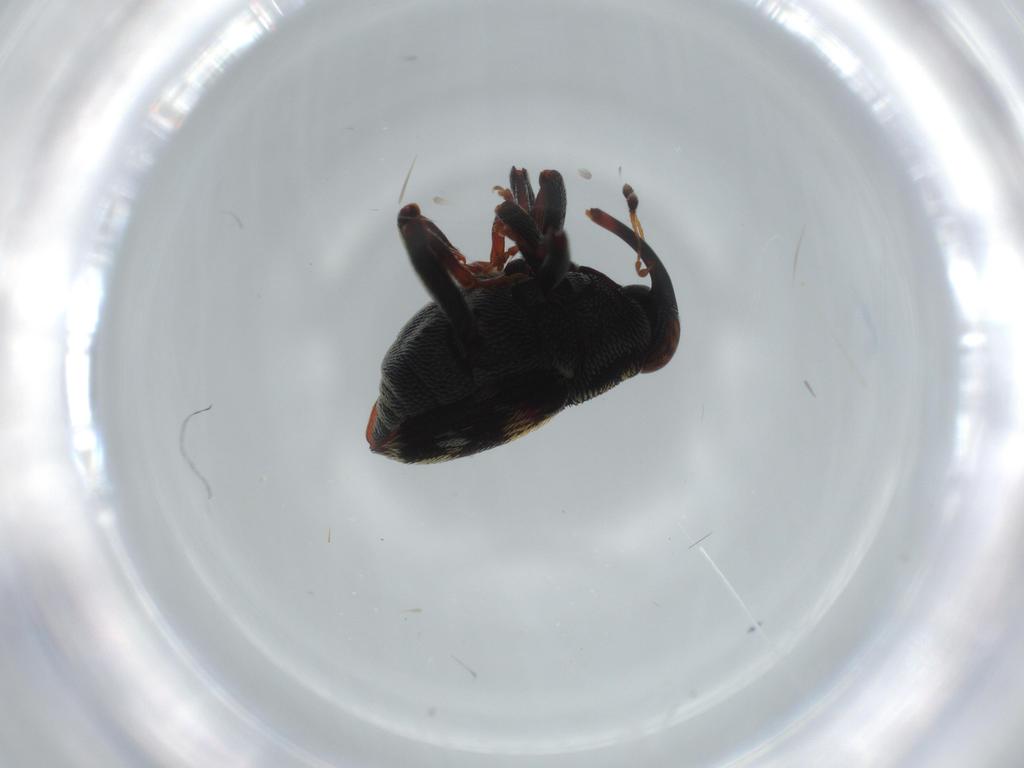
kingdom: Animalia
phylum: Arthropoda
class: Insecta
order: Coleoptera
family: Curculionidae
